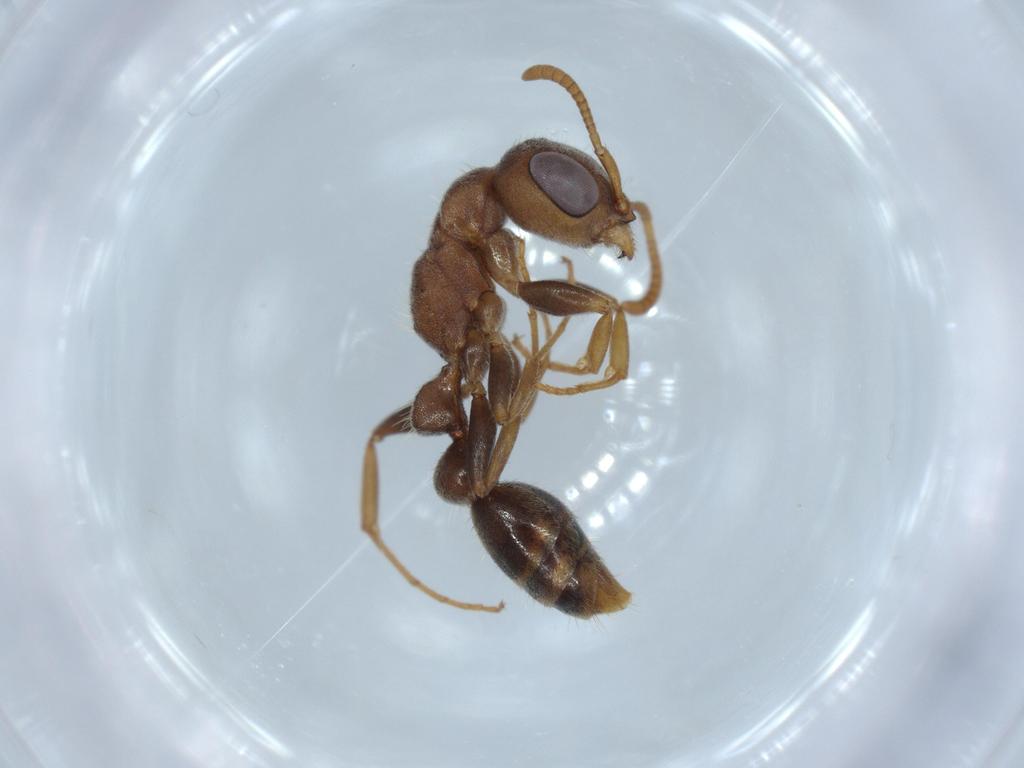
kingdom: Animalia
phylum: Arthropoda
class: Insecta
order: Hymenoptera
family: Formicidae
